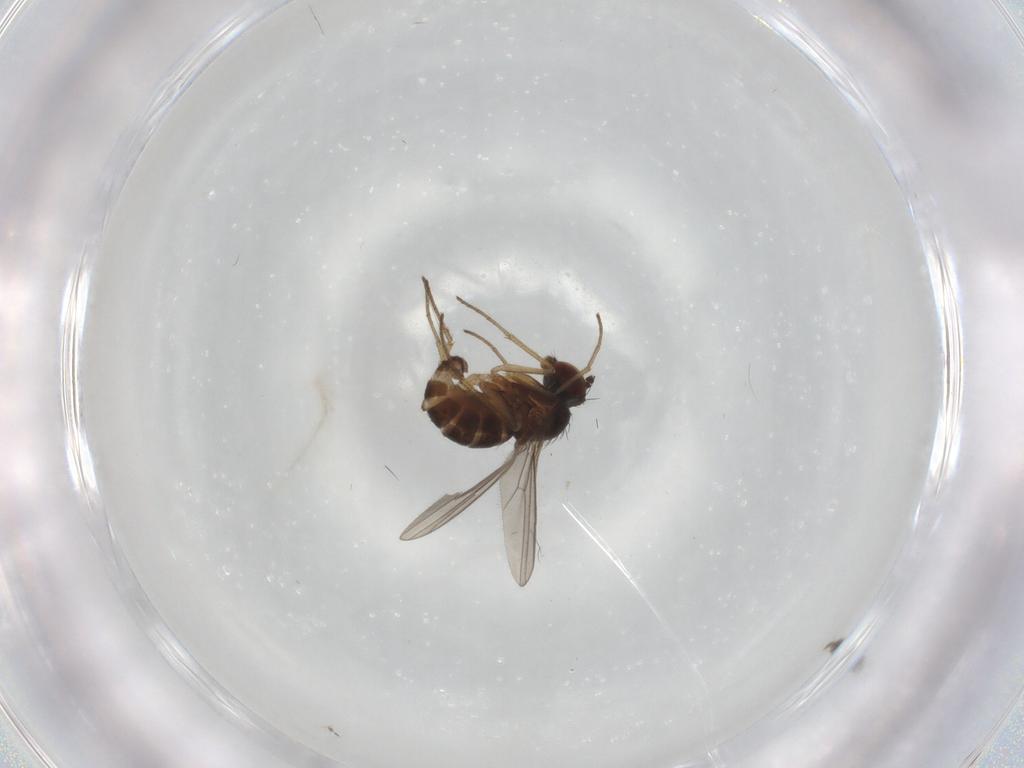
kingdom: Animalia
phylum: Arthropoda
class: Insecta
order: Diptera
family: Dolichopodidae
